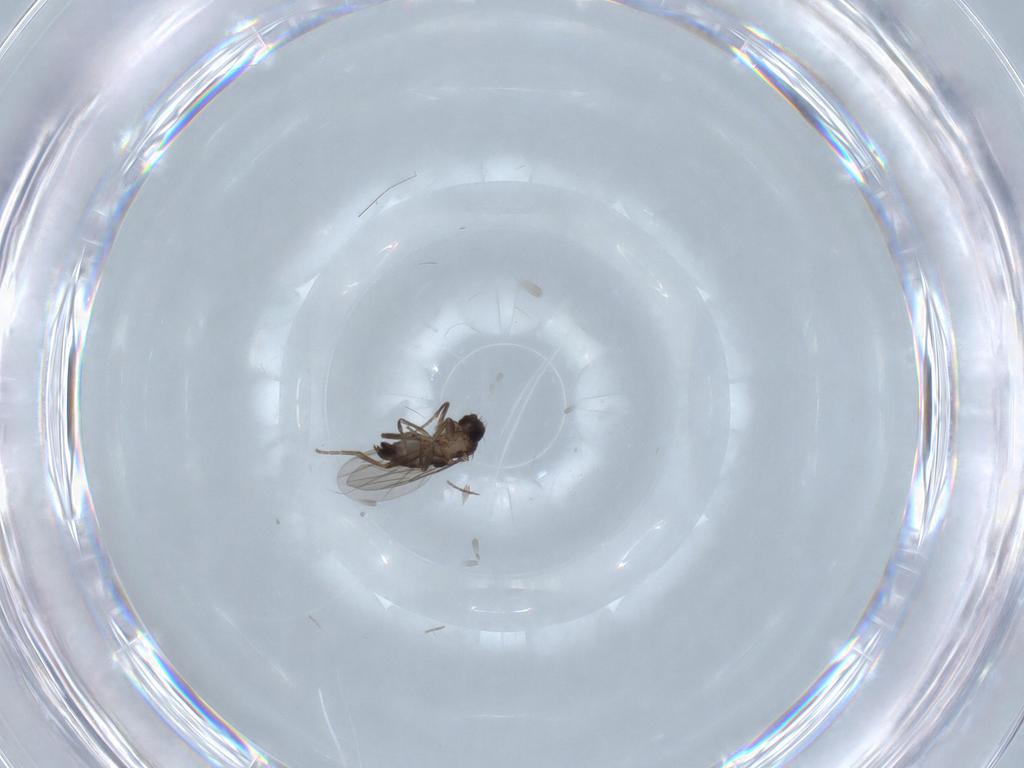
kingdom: Animalia
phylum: Arthropoda
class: Insecta
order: Diptera
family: Phoridae
